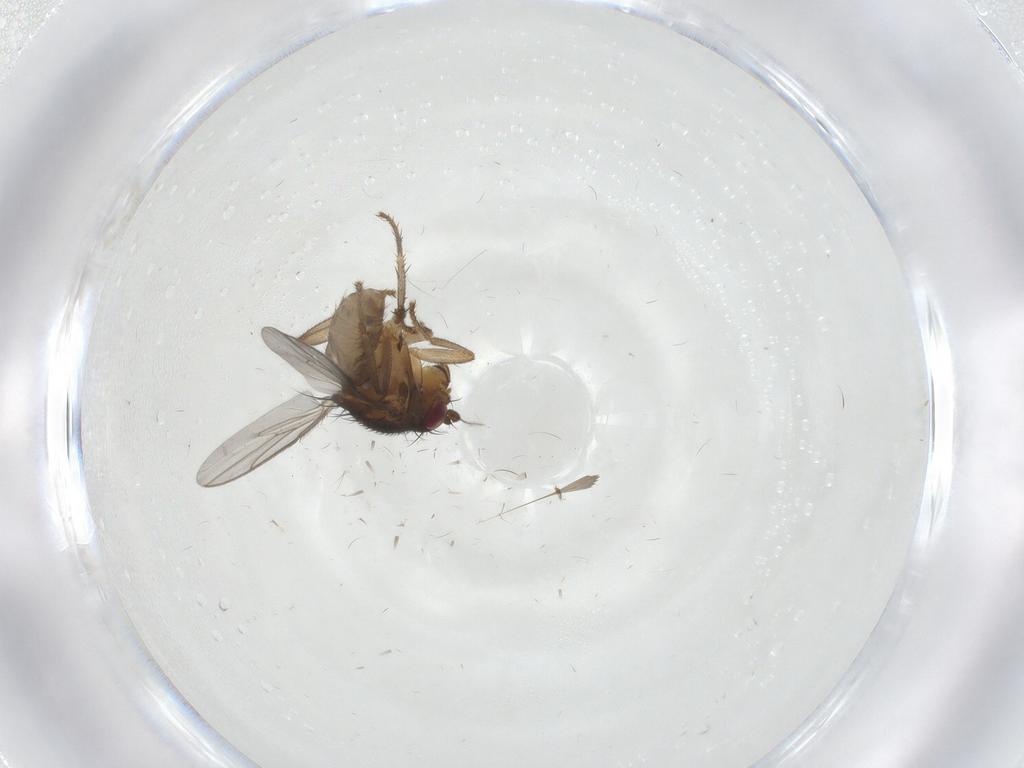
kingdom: Animalia
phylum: Arthropoda
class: Insecta
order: Diptera
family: Sphaeroceridae
